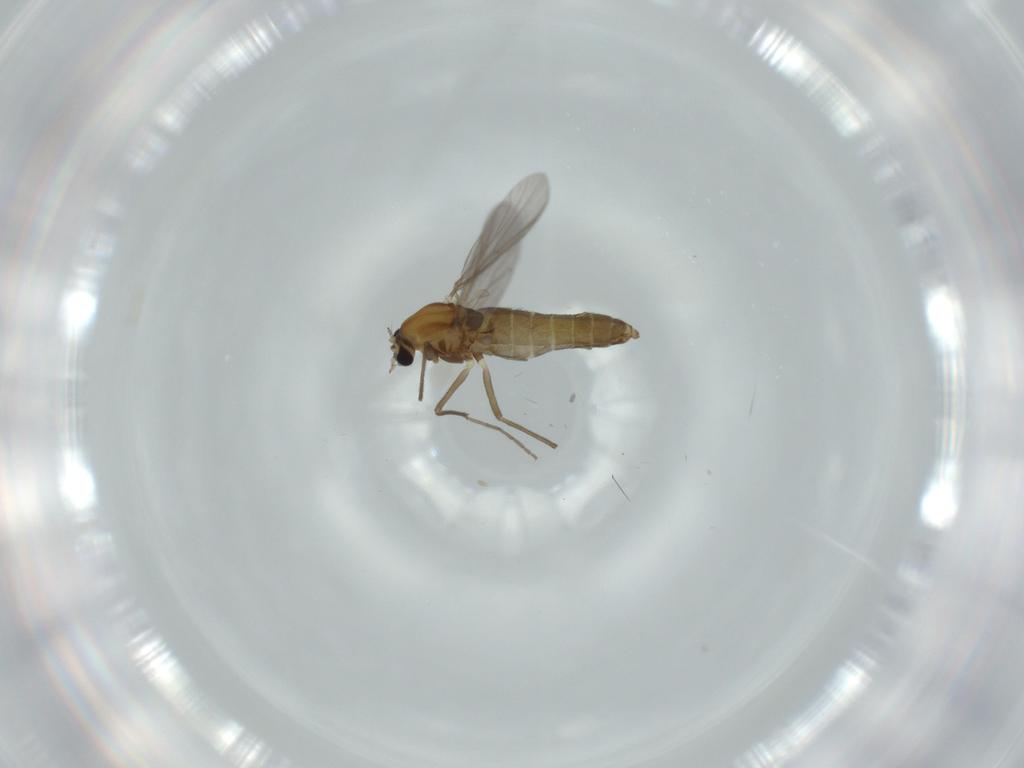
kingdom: Animalia
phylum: Arthropoda
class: Insecta
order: Diptera
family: Chironomidae
